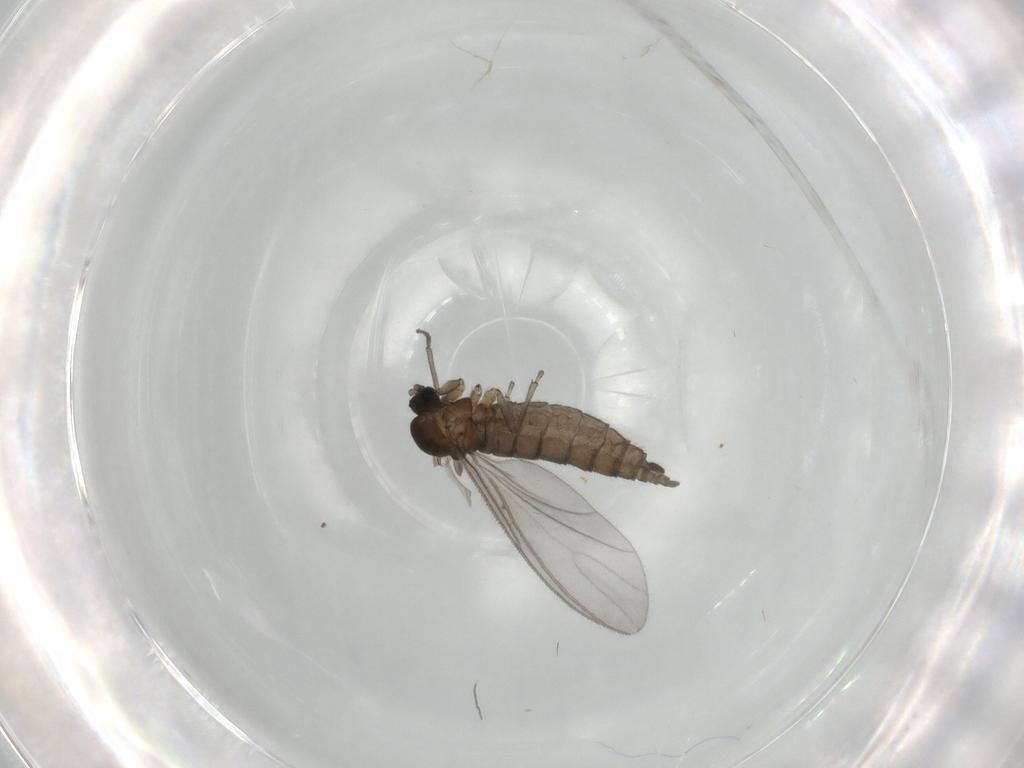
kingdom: Animalia
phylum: Arthropoda
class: Insecta
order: Diptera
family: Sciaridae
